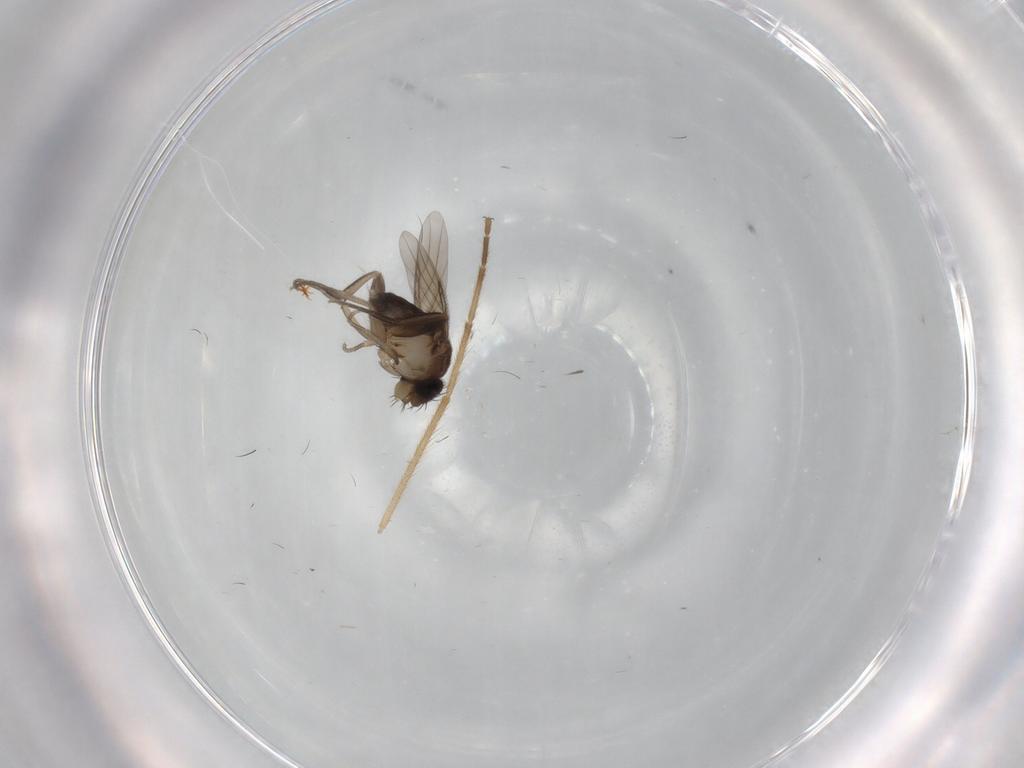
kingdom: Animalia
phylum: Arthropoda
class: Insecta
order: Diptera
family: Phoridae
